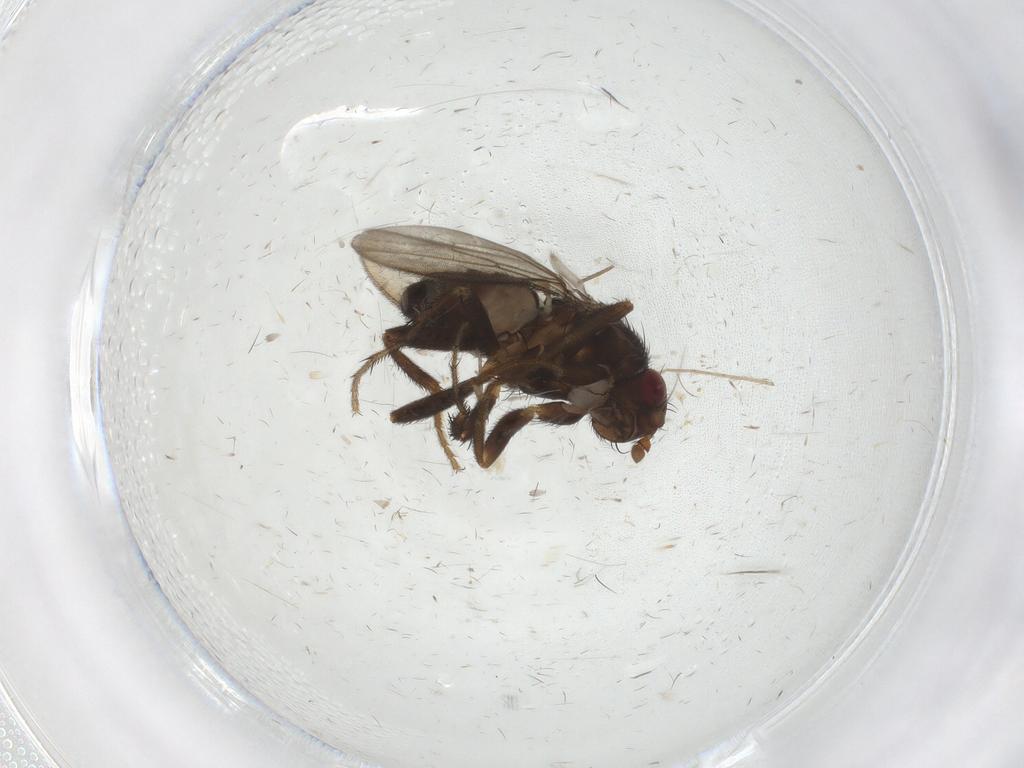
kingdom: Animalia
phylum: Arthropoda
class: Insecta
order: Diptera
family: Sphaeroceridae
